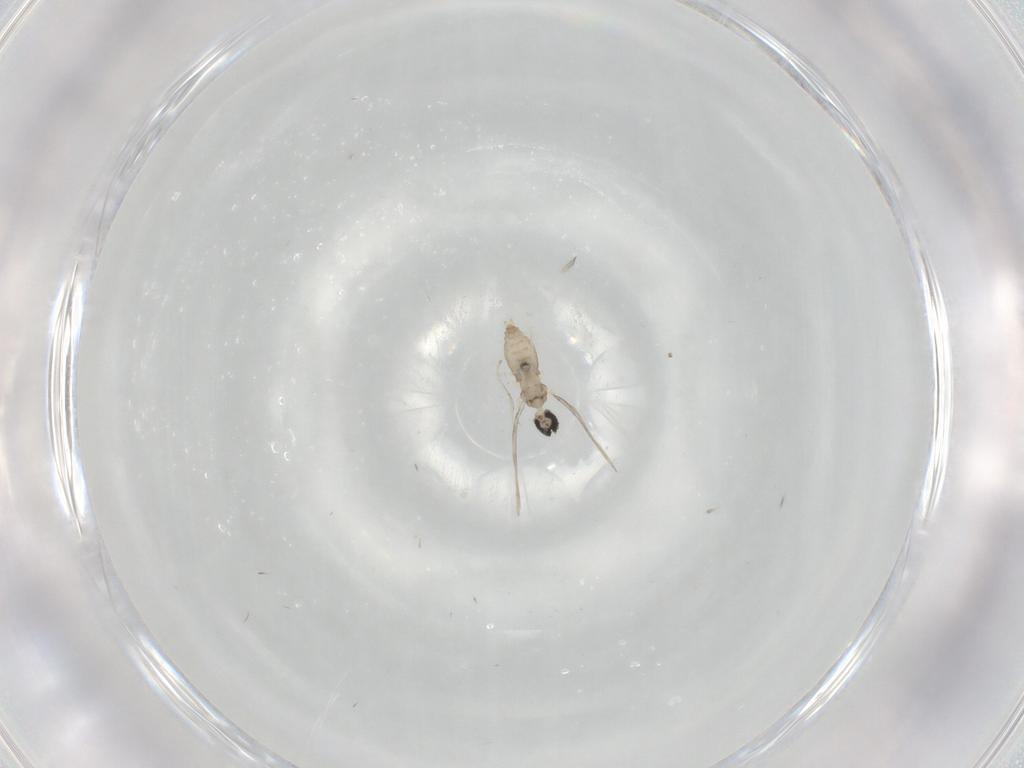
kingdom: Animalia
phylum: Arthropoda
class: Insecta
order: Diptera
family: Cecidomyiidae
